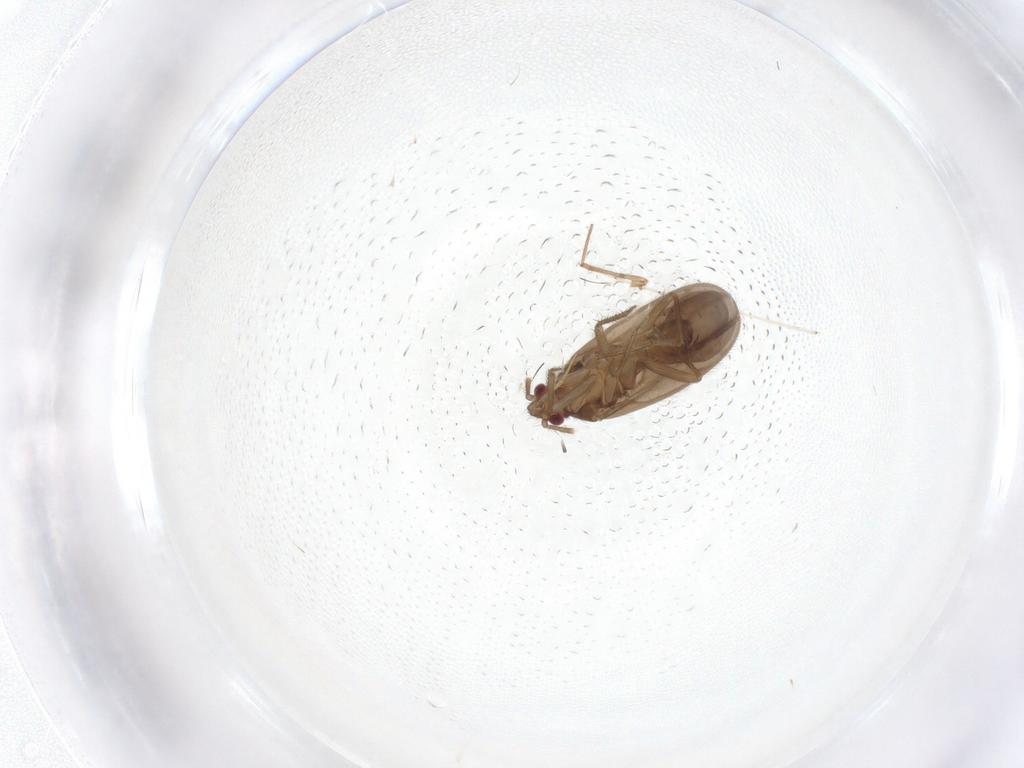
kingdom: Animalia
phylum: Arthropoda
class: Insecta
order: Hemiptera
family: Ceratocombidae
